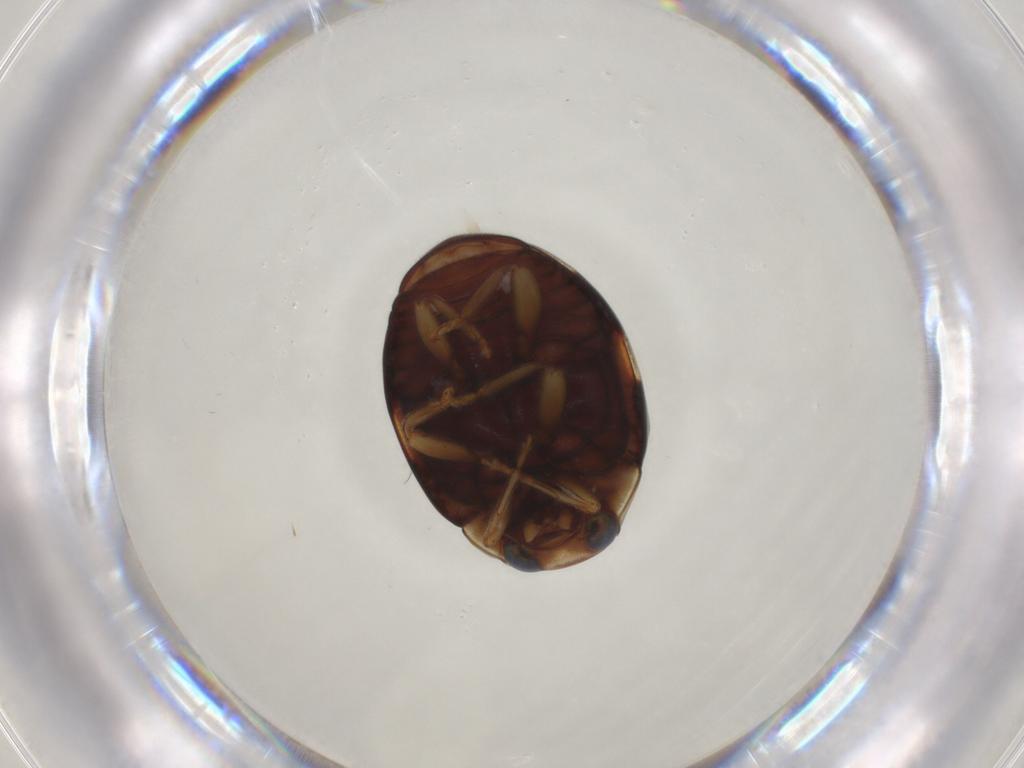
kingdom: Animalia
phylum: Arthropoda
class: Insecta
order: Coleoptera
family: Coccinellidae
